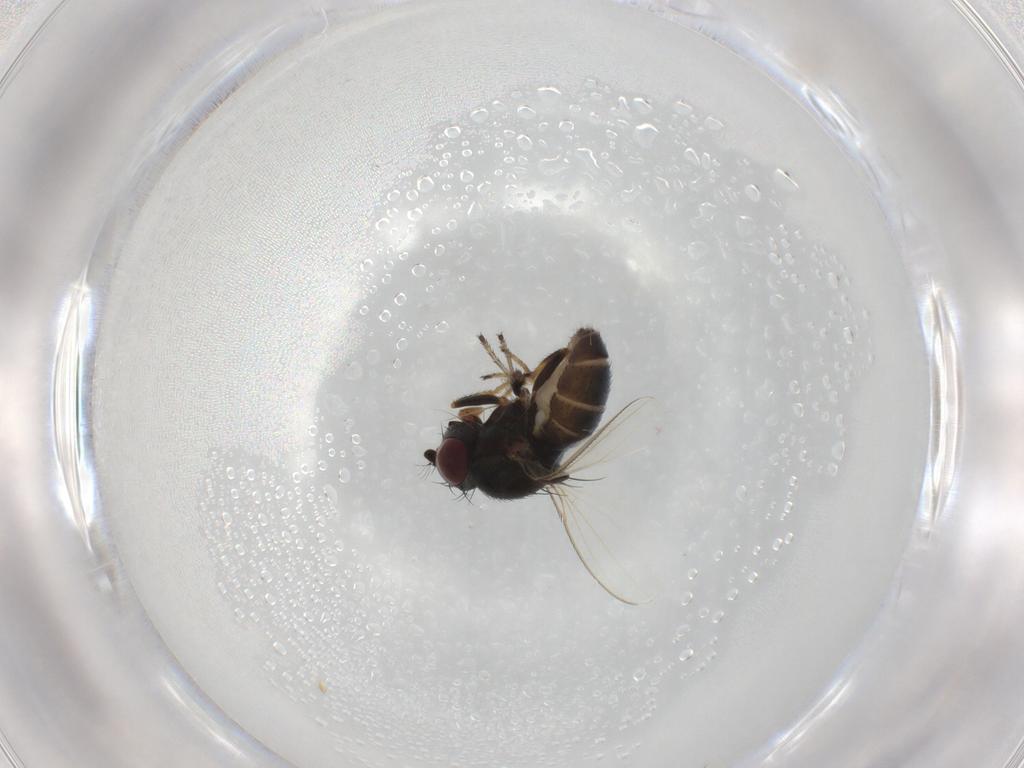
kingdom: Animalia
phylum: Arthropoda
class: Insecta
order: Diptera
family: Ephydridae
